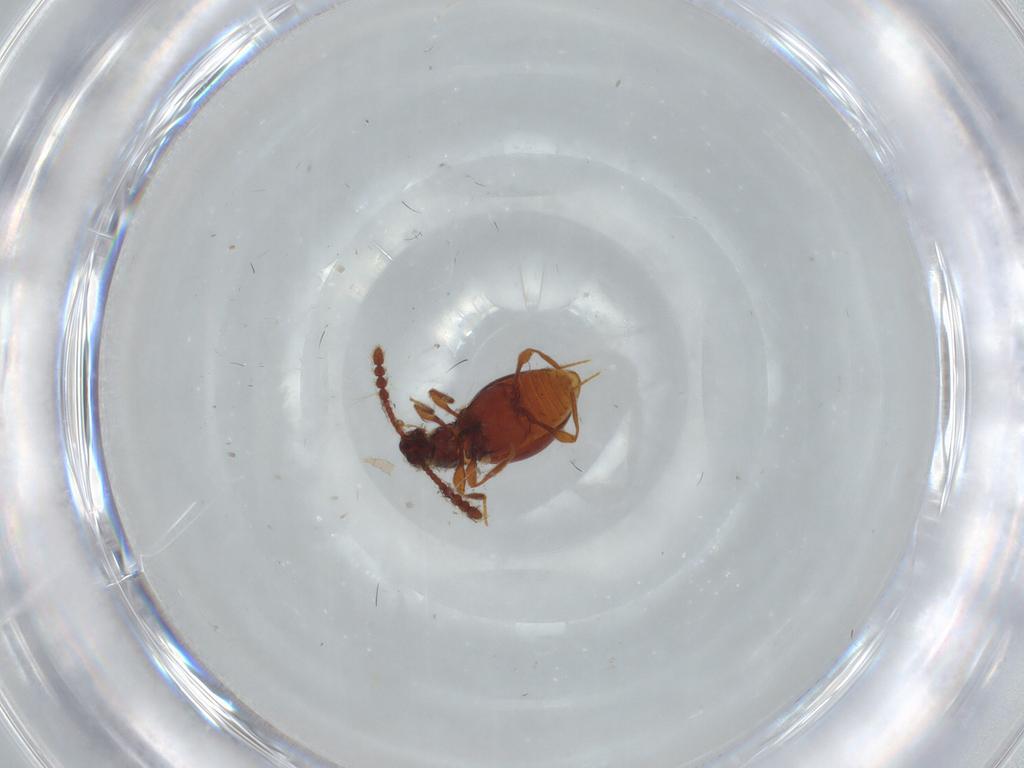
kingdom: Animalia
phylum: Arthropoda
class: Insecta
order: Coleoptera
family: Staphylinidae
